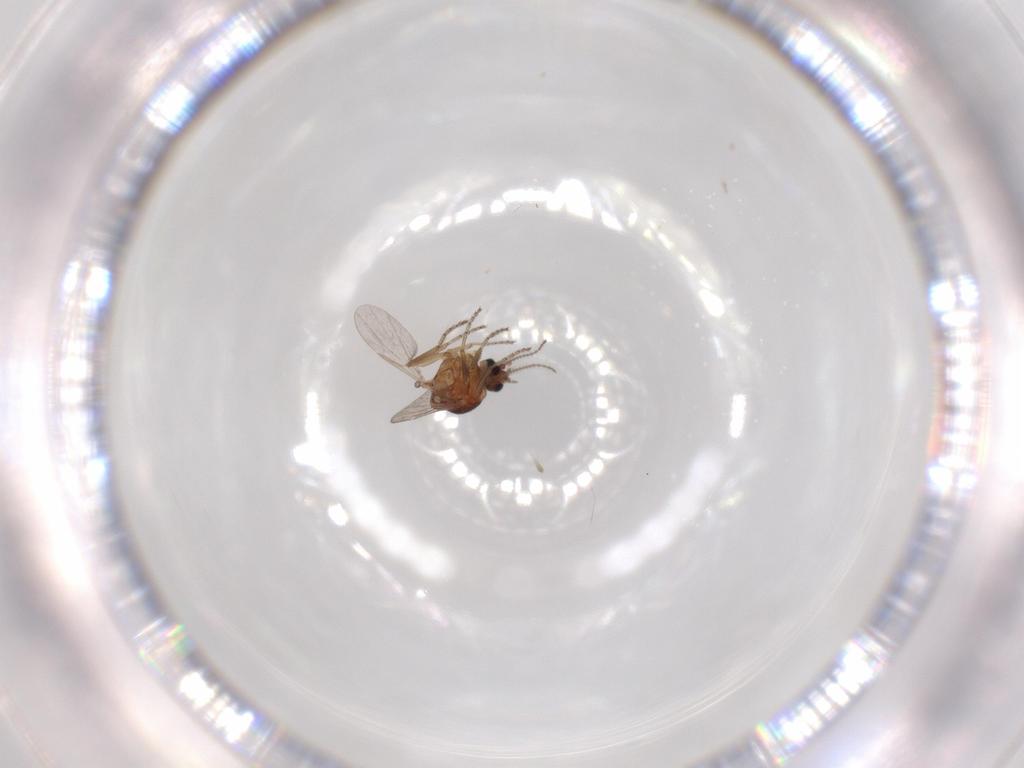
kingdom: Animalia
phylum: Arthropoda
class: Insecta
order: Diptera
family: Ceratopogonidae
